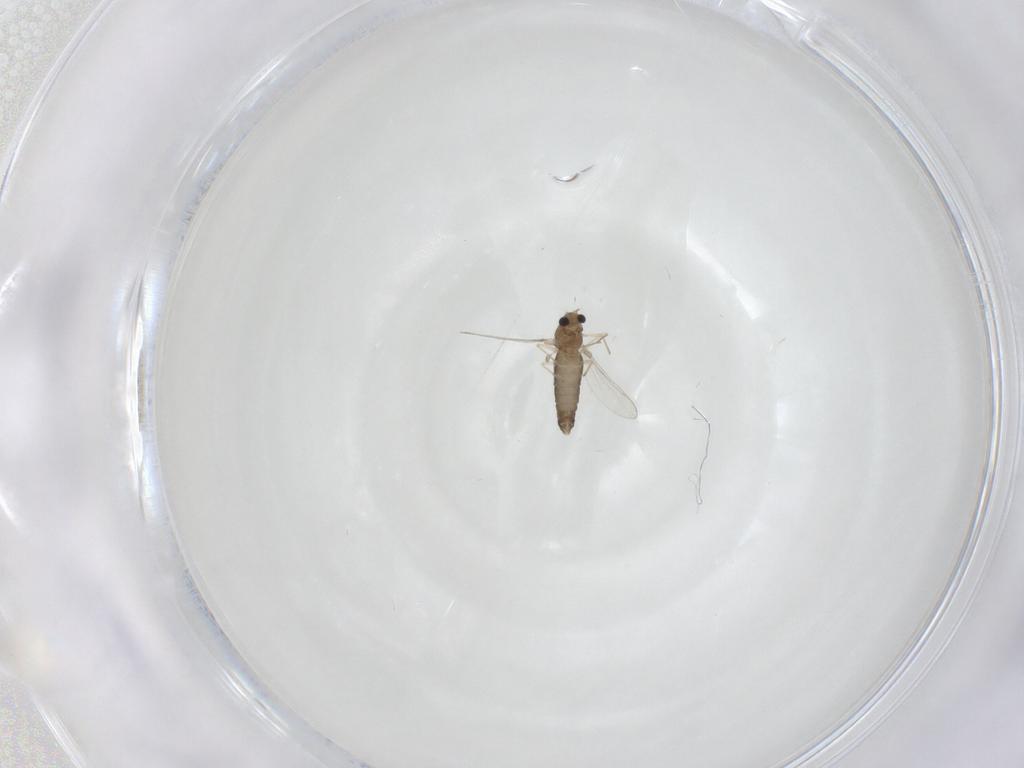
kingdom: Animalia
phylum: Arthropoda
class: Insecta
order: Diptera
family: Chironomidae
